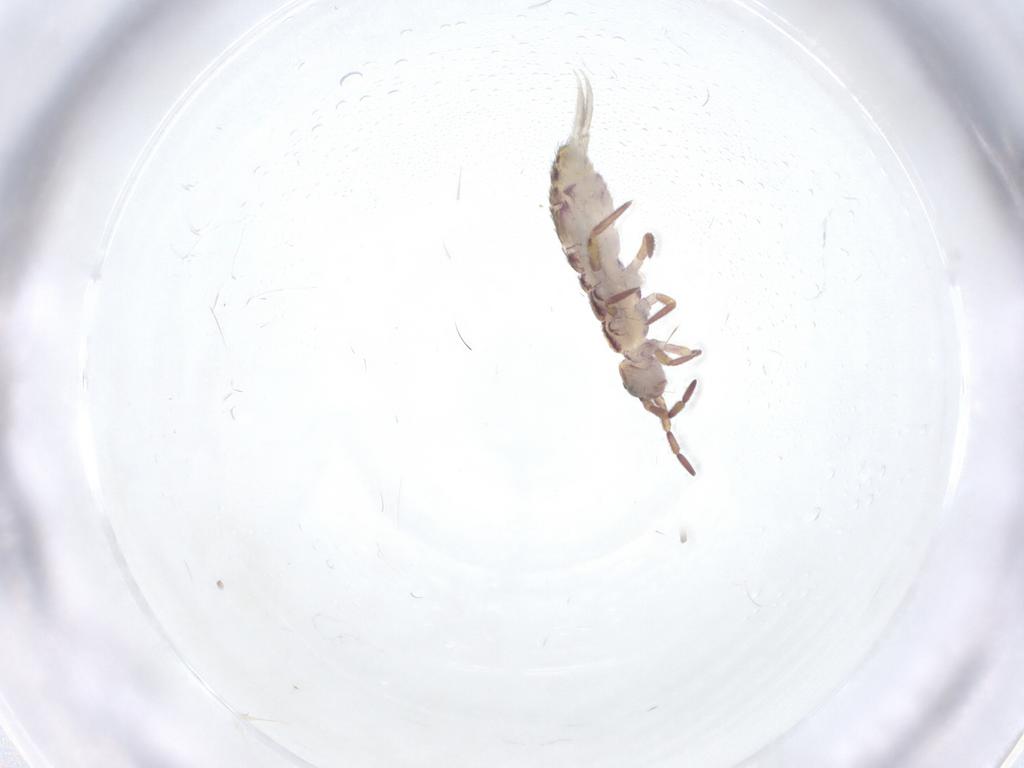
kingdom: Animalia
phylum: Arthropoda
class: Collembola
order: Entomobryomorpha
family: Isotomidae
